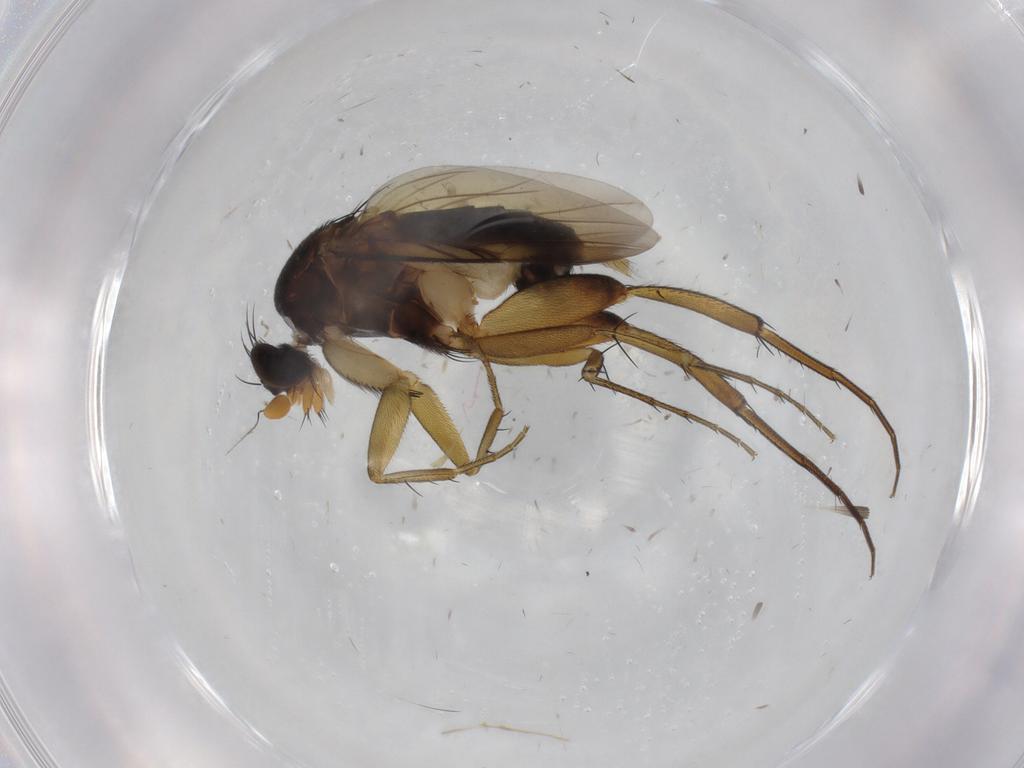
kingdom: Animalia
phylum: Arthropoda
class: Insecta
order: Diptera
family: Phoridae
